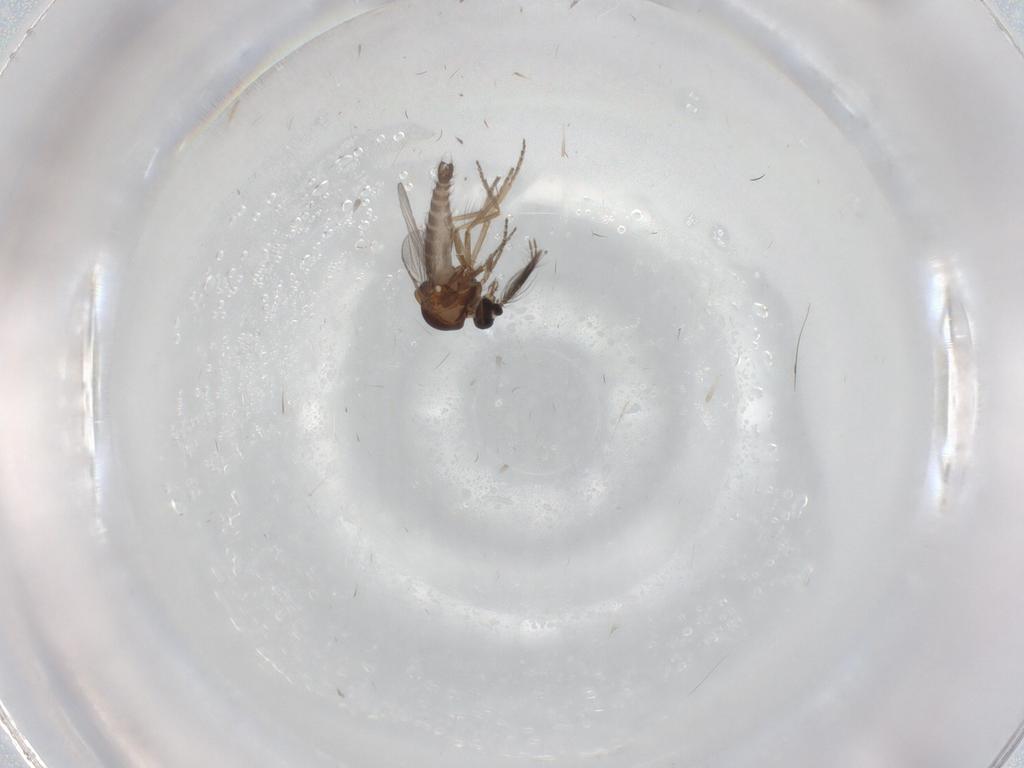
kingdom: Animalia
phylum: Arthropoda
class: Insecta
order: Diptera
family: Ceratopogonidae
